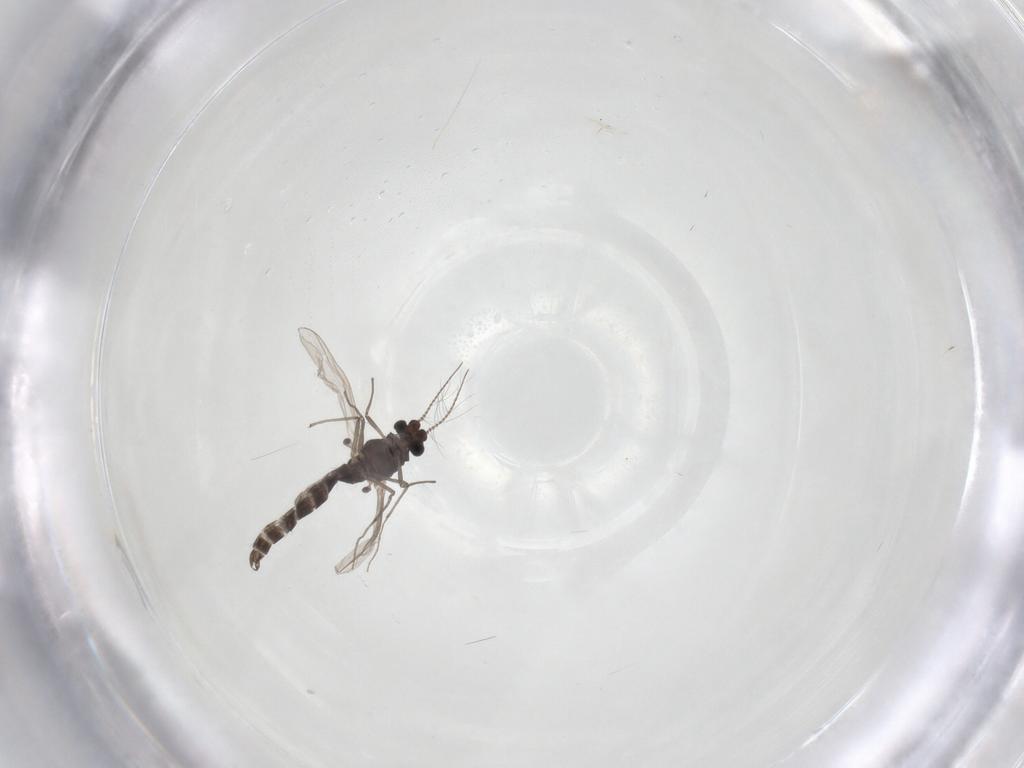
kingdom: Animalia
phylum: Arthropoda
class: Insecta
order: Diptera
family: Chironomidae
